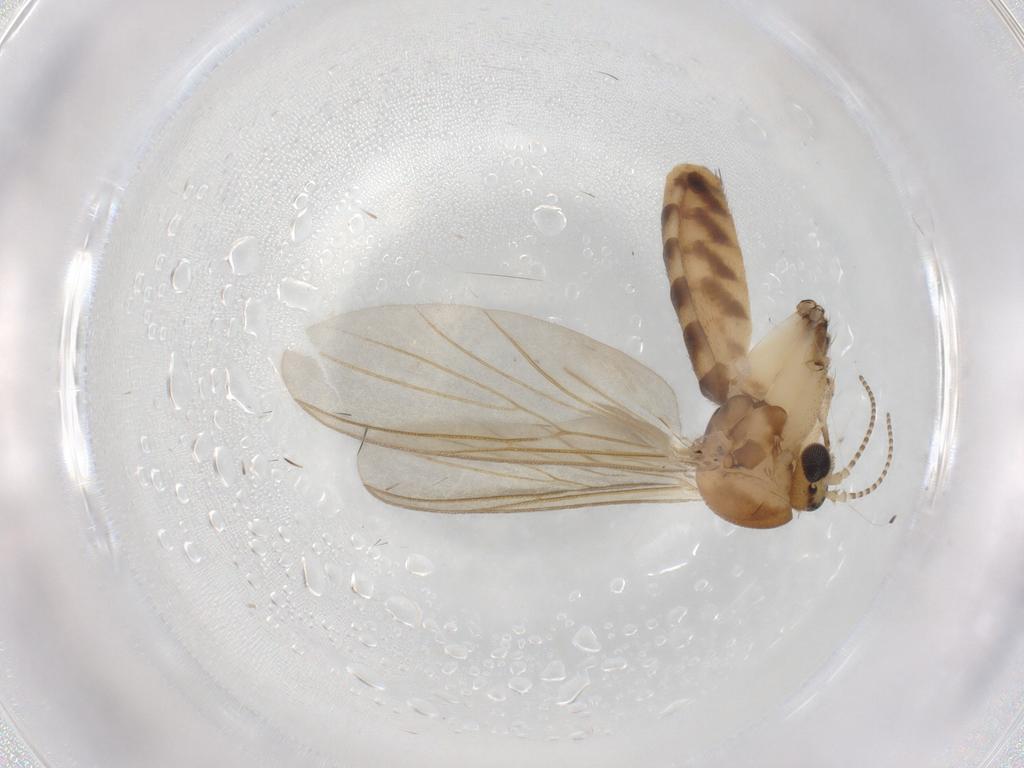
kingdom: Animalia
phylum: Arthropoda
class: Insecta
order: Diptera
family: Mycetophilidae
